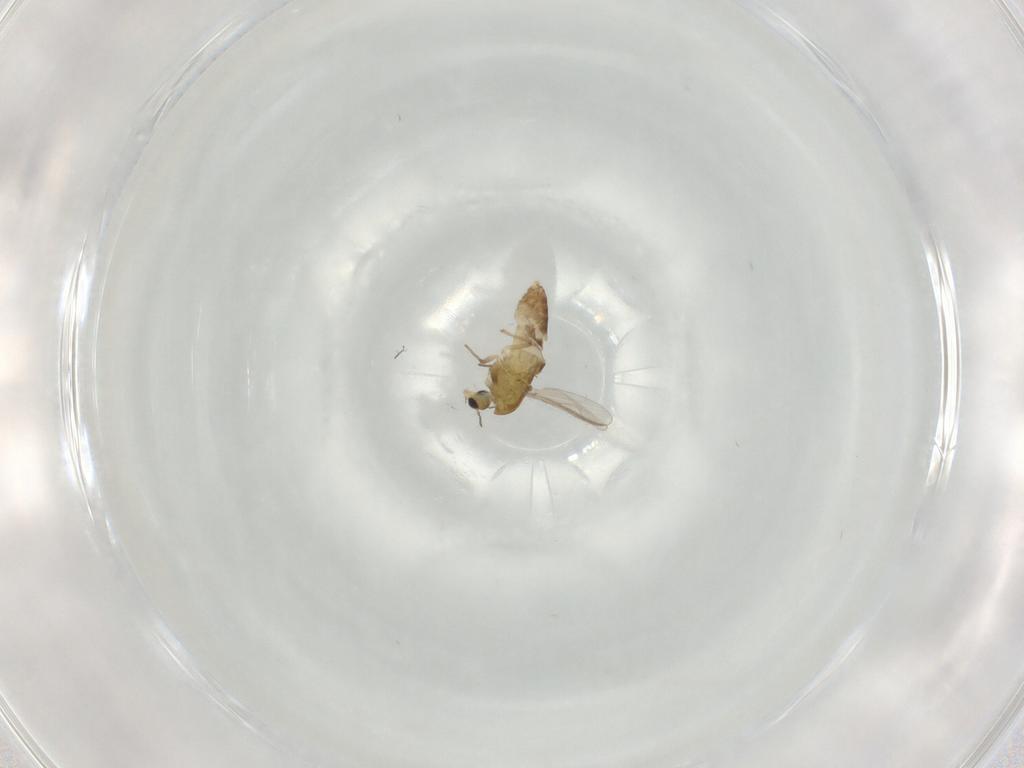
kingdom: Animalia
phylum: Arthropoda
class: Insecta
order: Diptera
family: Chironomidae
